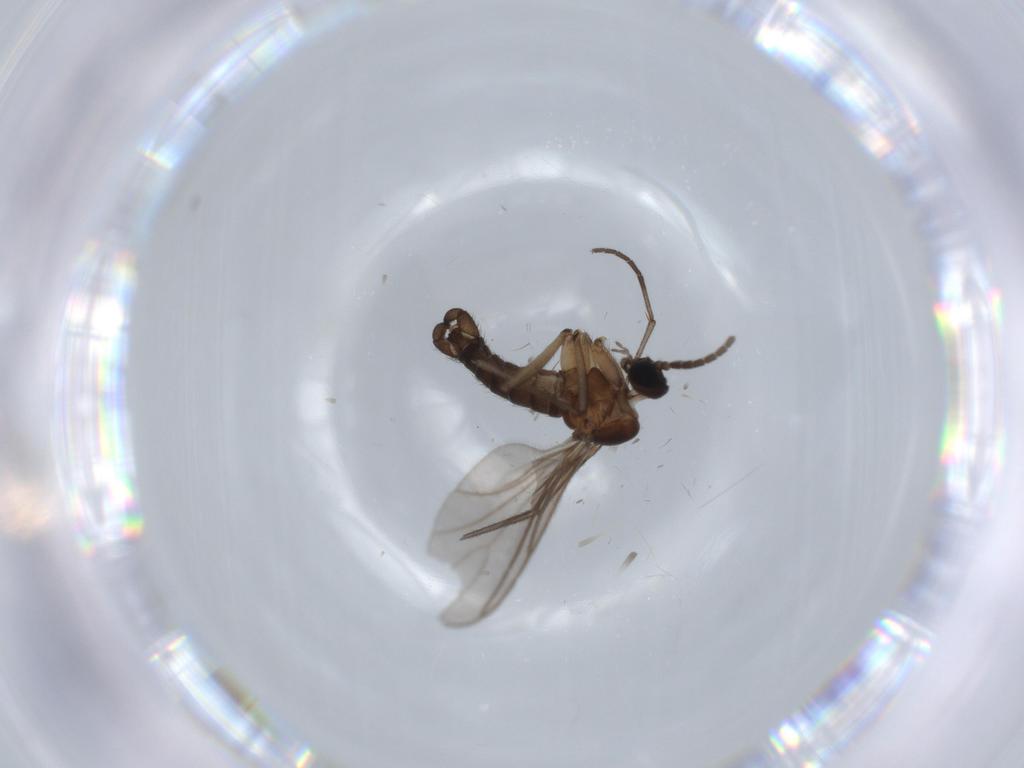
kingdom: Animalia
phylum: Arthropoda
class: Insecta
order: Diptera
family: Sciaridae
